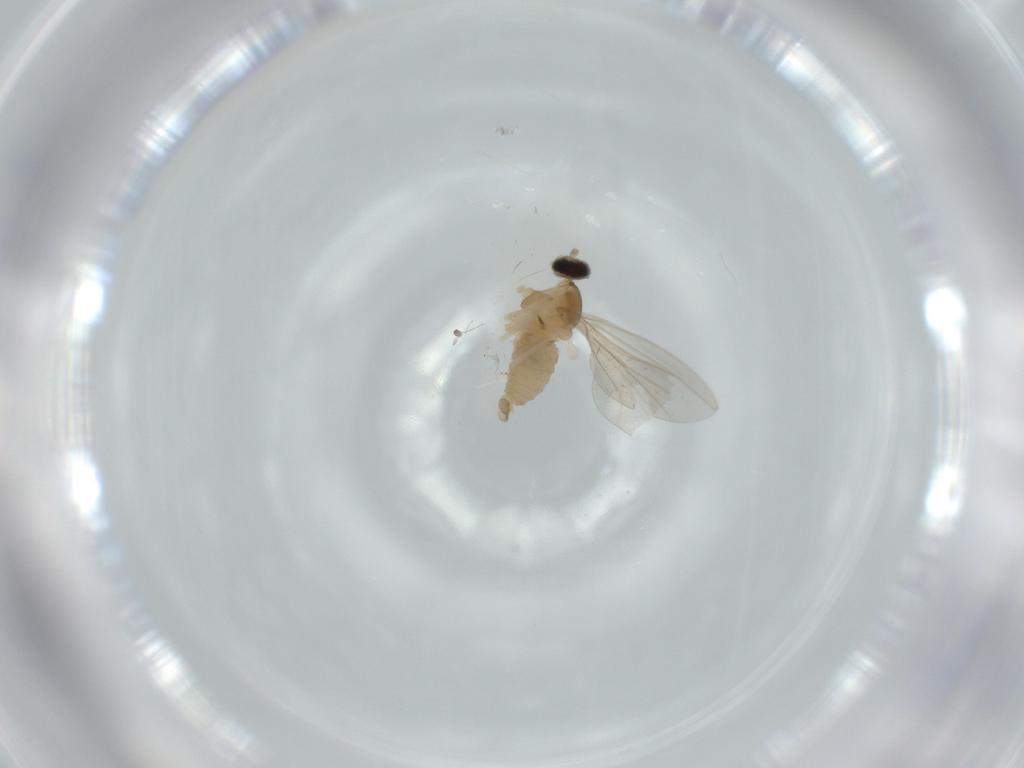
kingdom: Animalia
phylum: Arthropoda
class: Insecta
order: Diptera
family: Cecidomyiidae
